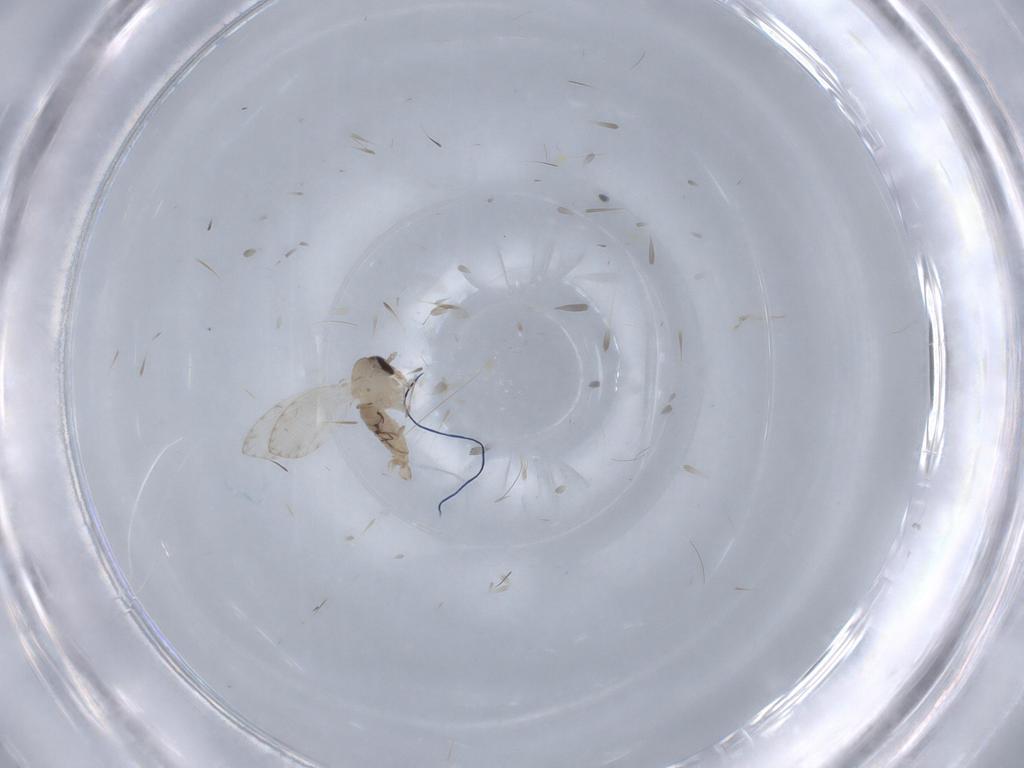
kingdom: Animalia
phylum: Arthropoda
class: Insecta
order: Diptera
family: Psychodidae
